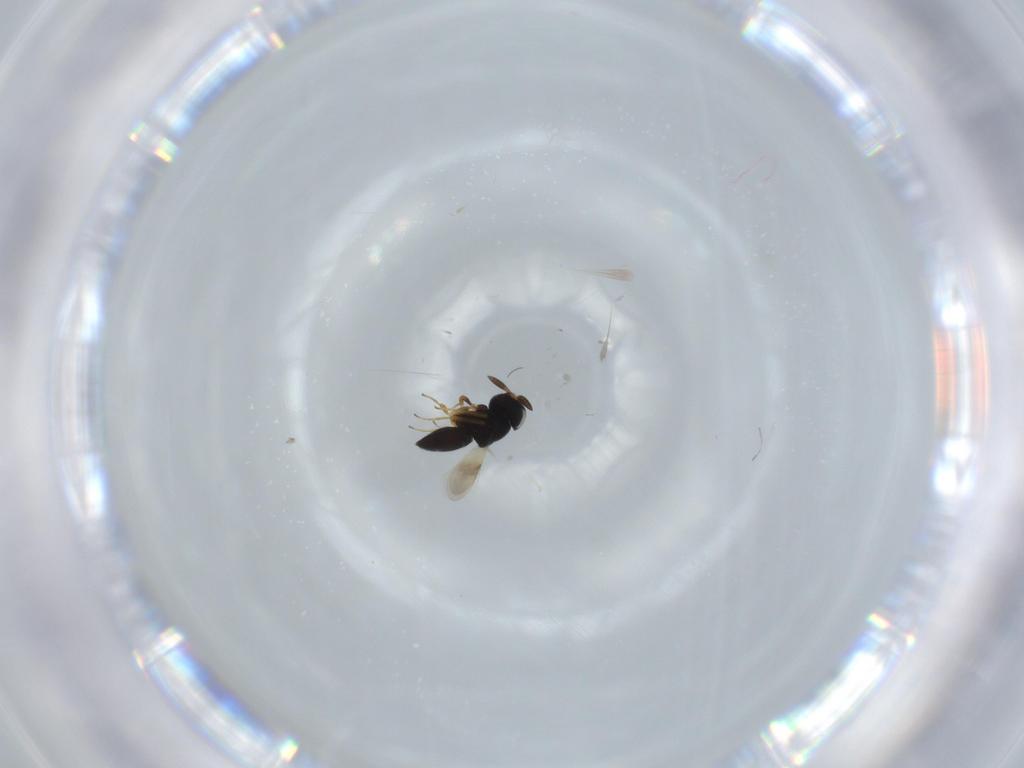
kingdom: Animalia
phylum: Arthropoda
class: Insecta
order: Hymenoptera
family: Scelionidae
